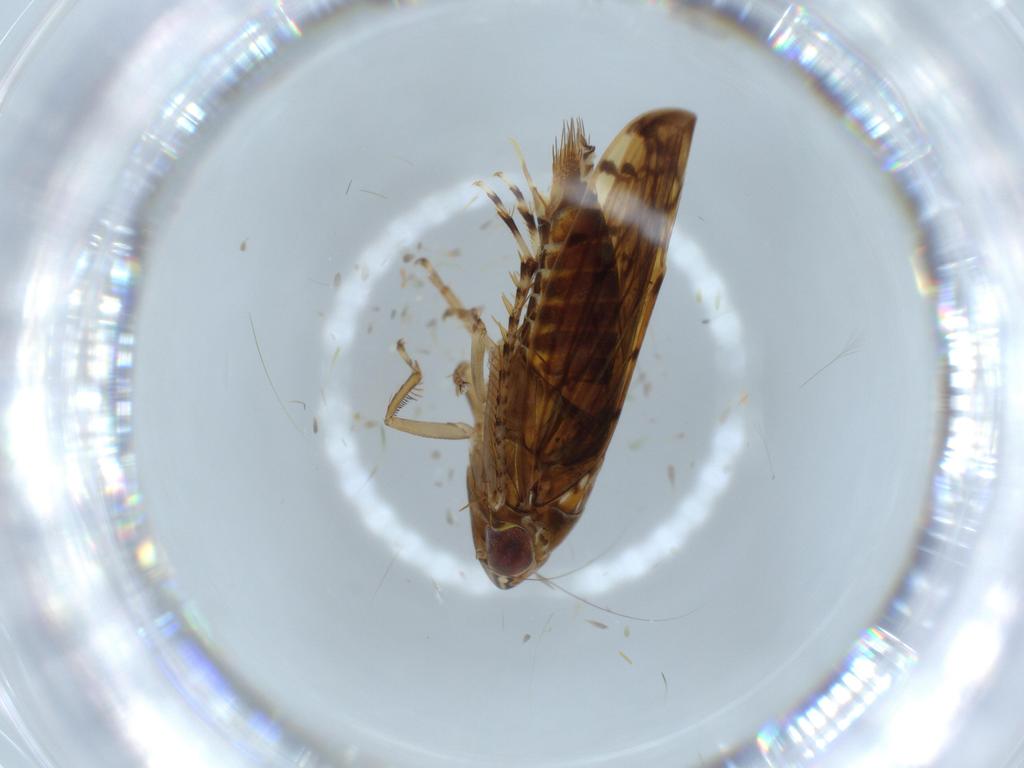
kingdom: Animalia
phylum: Arthropoda
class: Insecta
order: Hemiptera
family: Cicadellidae
